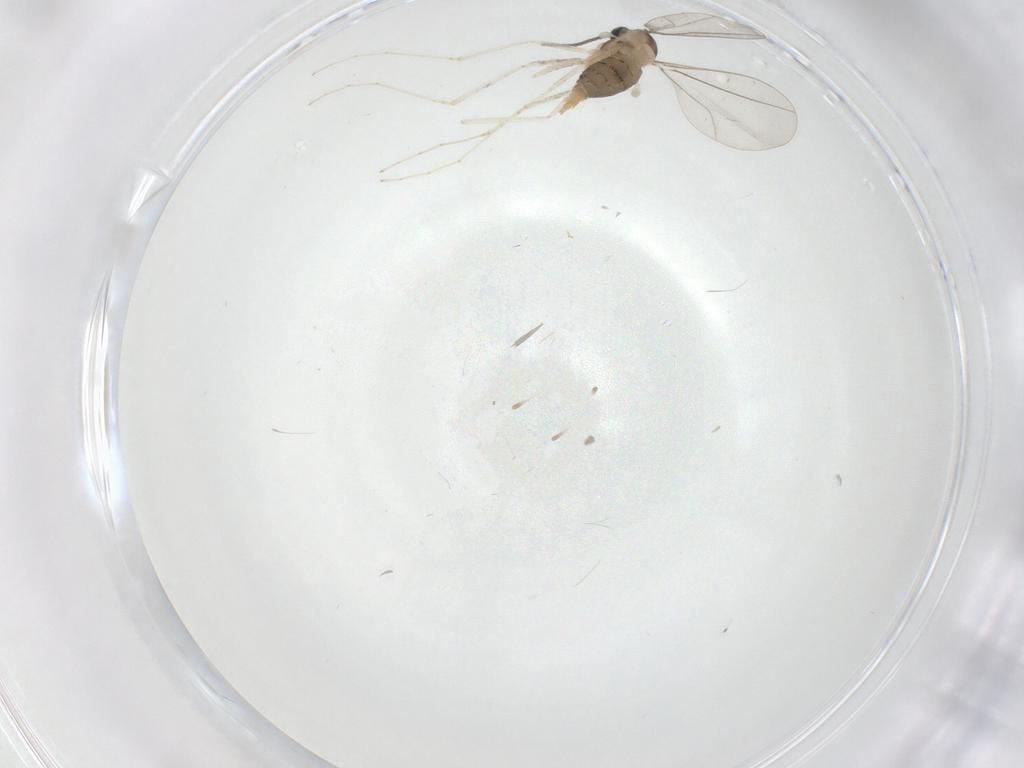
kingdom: Animalia
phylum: Arthropoda
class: Insecta
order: Diptera
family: Cecidomyiidae
